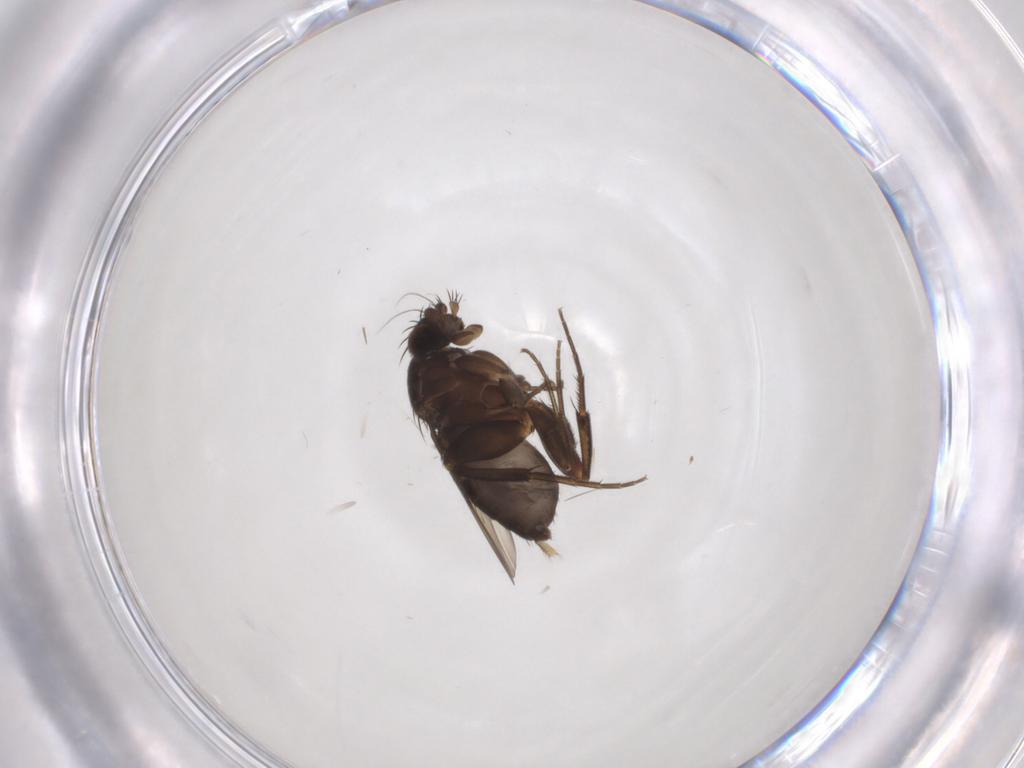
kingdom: Animalia
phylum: Arthropoda
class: Insecta
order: Diptera
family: Phoridae
